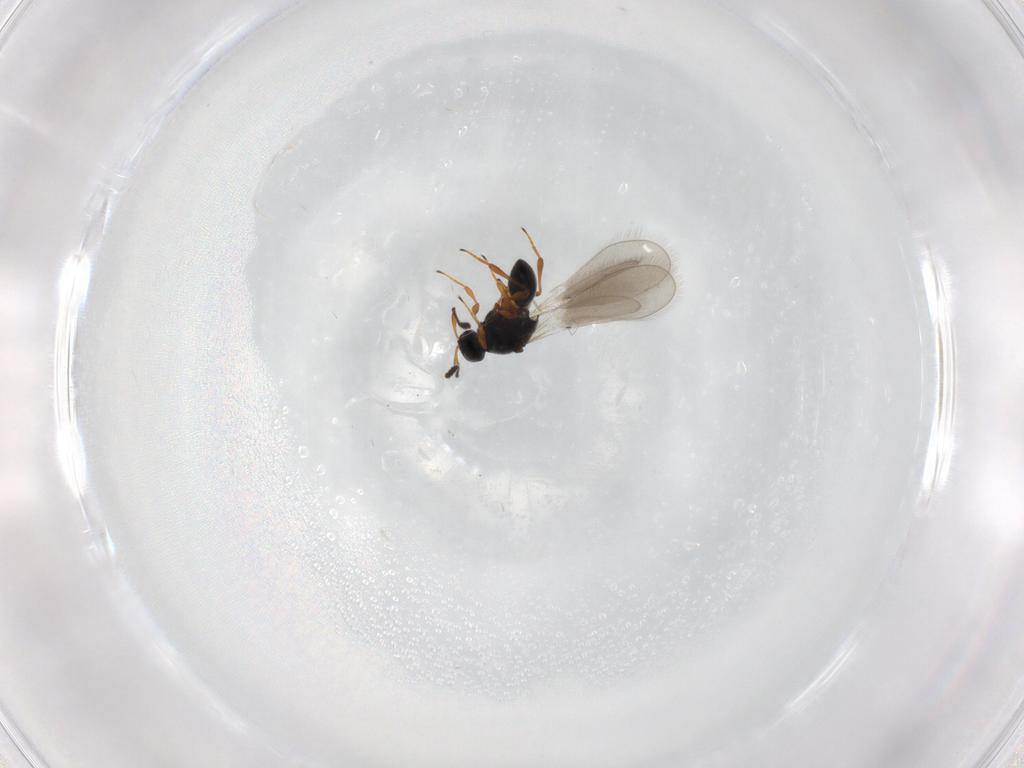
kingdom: Animalia
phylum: Arthropoda
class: Insecta
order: Hymenoptera
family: Platygastridae
